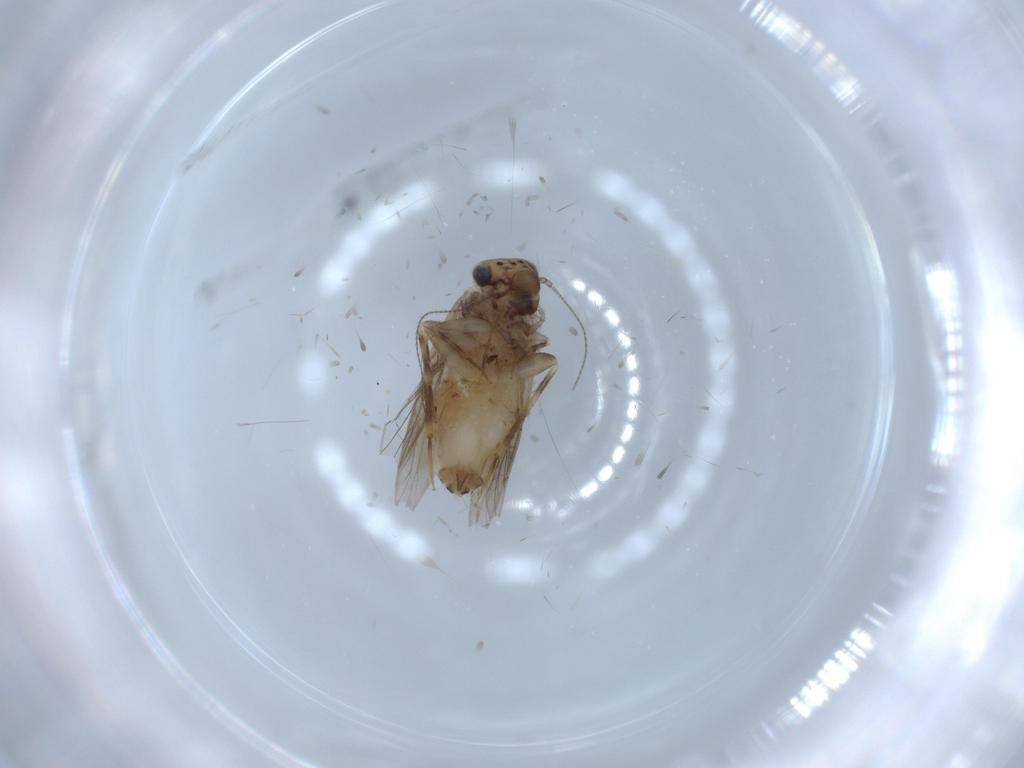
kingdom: Animalia
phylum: Arthropoda
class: Insecta
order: Psocodea
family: Lepidopsocidae
